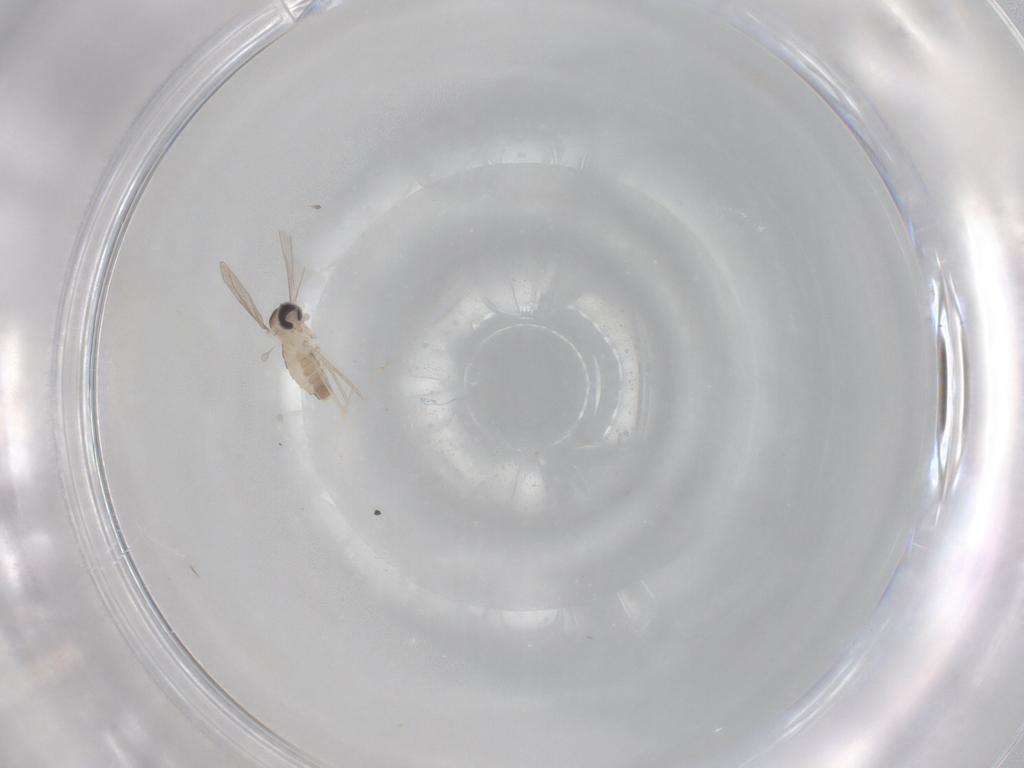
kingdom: Animalia
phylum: Arthropoda
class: Insecta
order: Diptera
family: Cecidomyiidae
